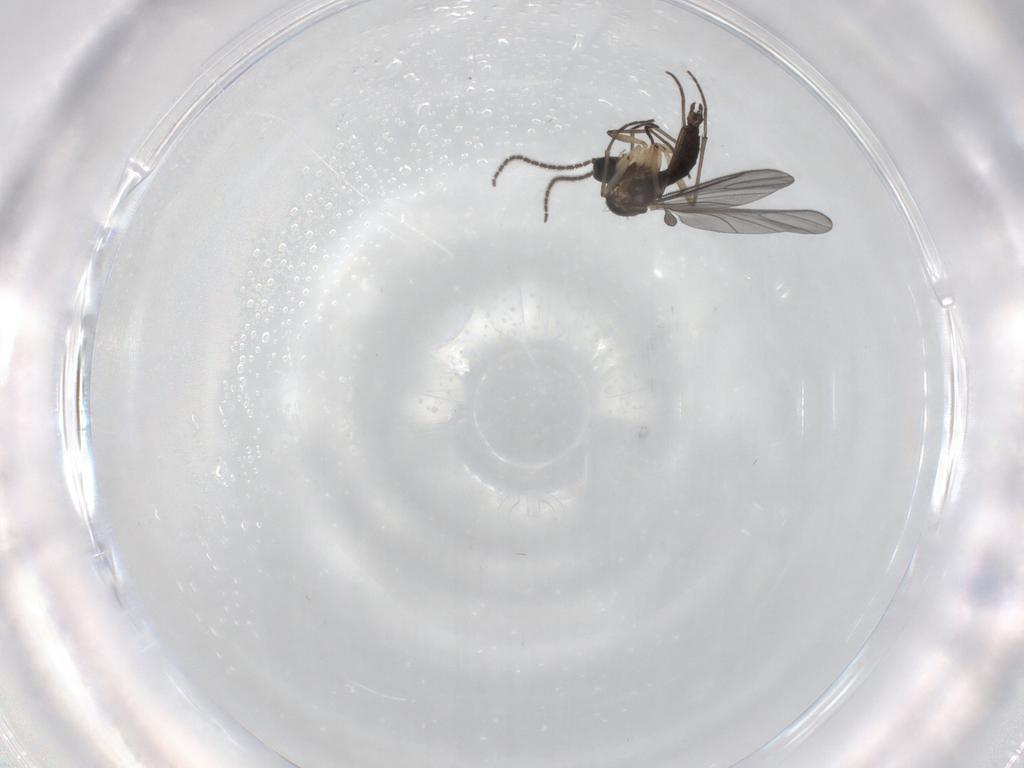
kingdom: Animalia
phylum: Arthropoda
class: Insecta
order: Diptera
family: Sciaridae
